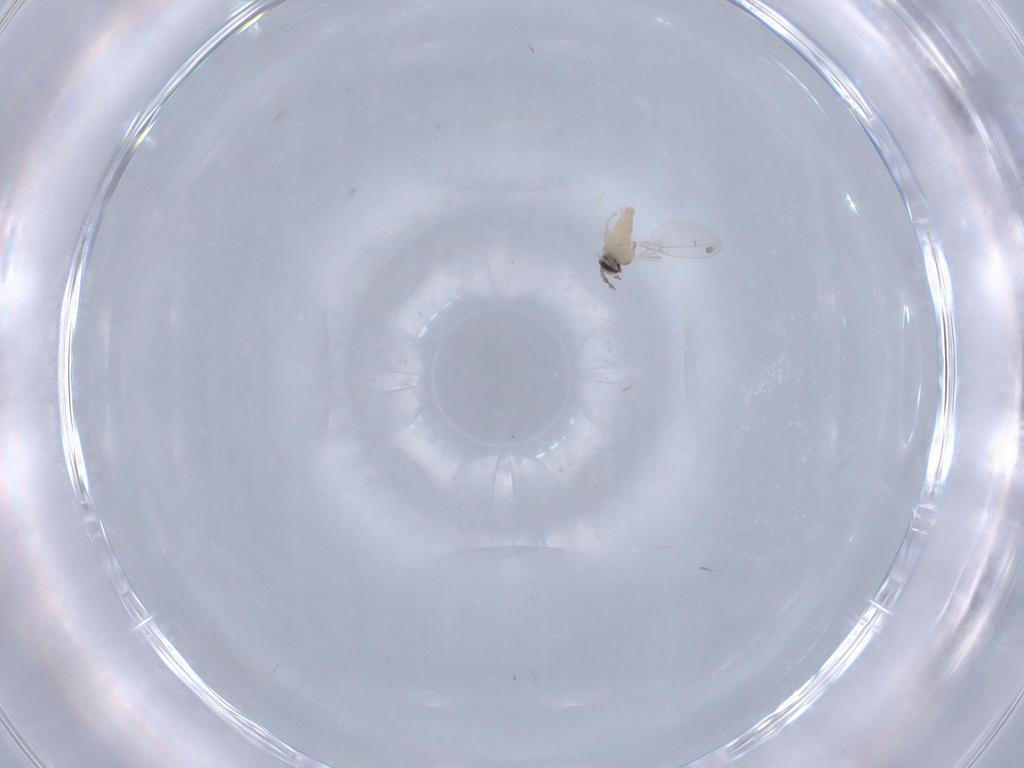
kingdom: Animalia
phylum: Arthropoda
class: Insecta
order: Diptera
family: Cecidomyiidae
